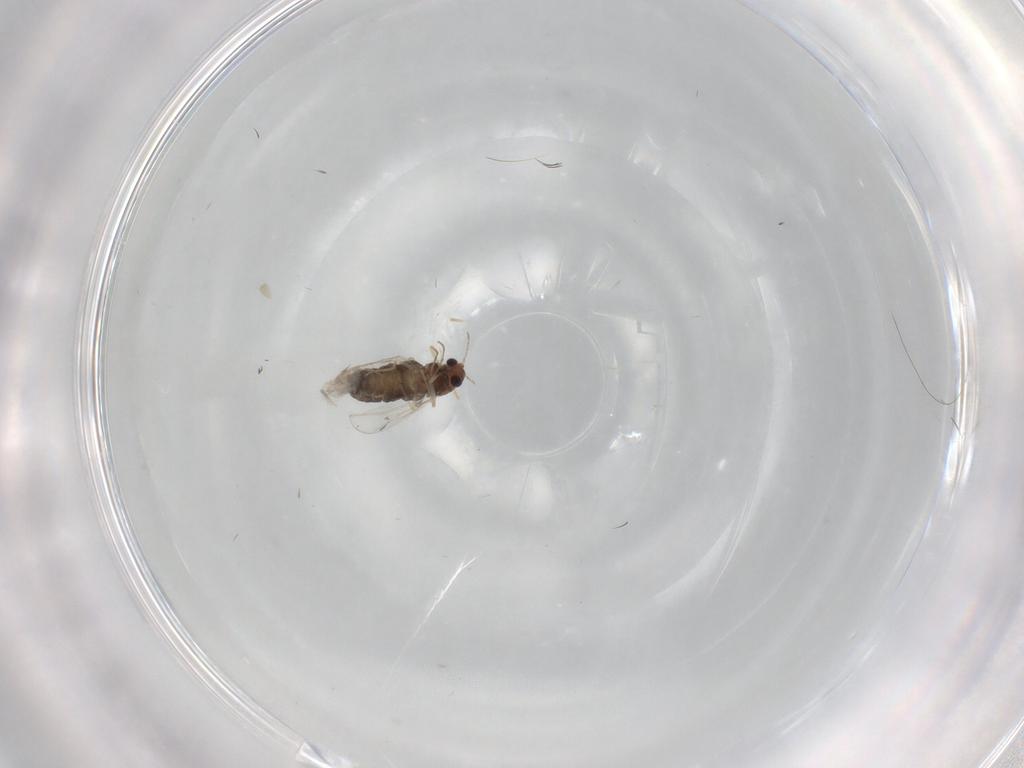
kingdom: Animalia
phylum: Arthropoda
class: Insecta
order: Diptera
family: Chironomidae
